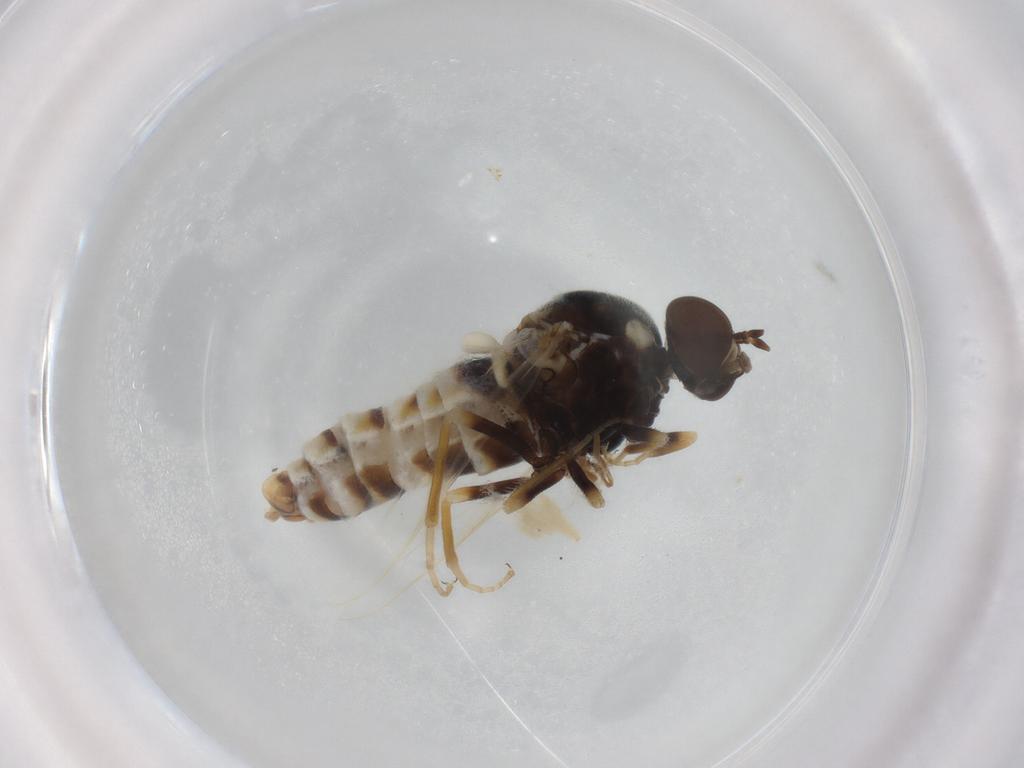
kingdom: Animalia
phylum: Arthropoda
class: Insecta
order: Diptera
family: Scenopinidae
